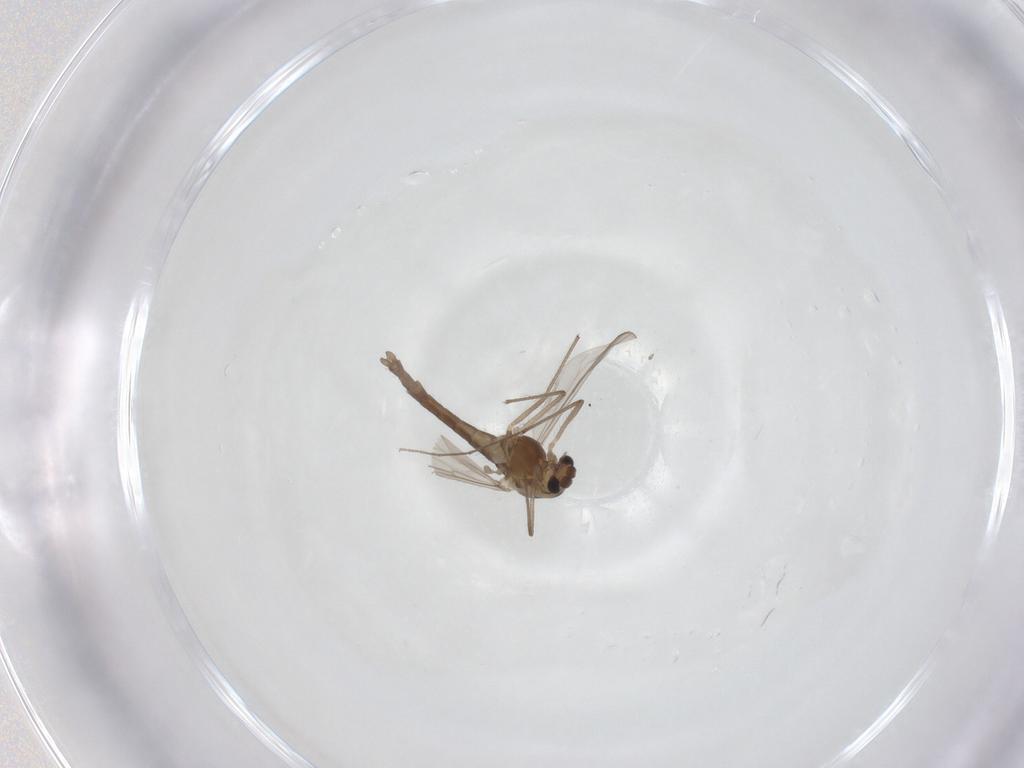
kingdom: Animalia
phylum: Arthropoda
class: Insecta
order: Diptera
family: Chironomidae
